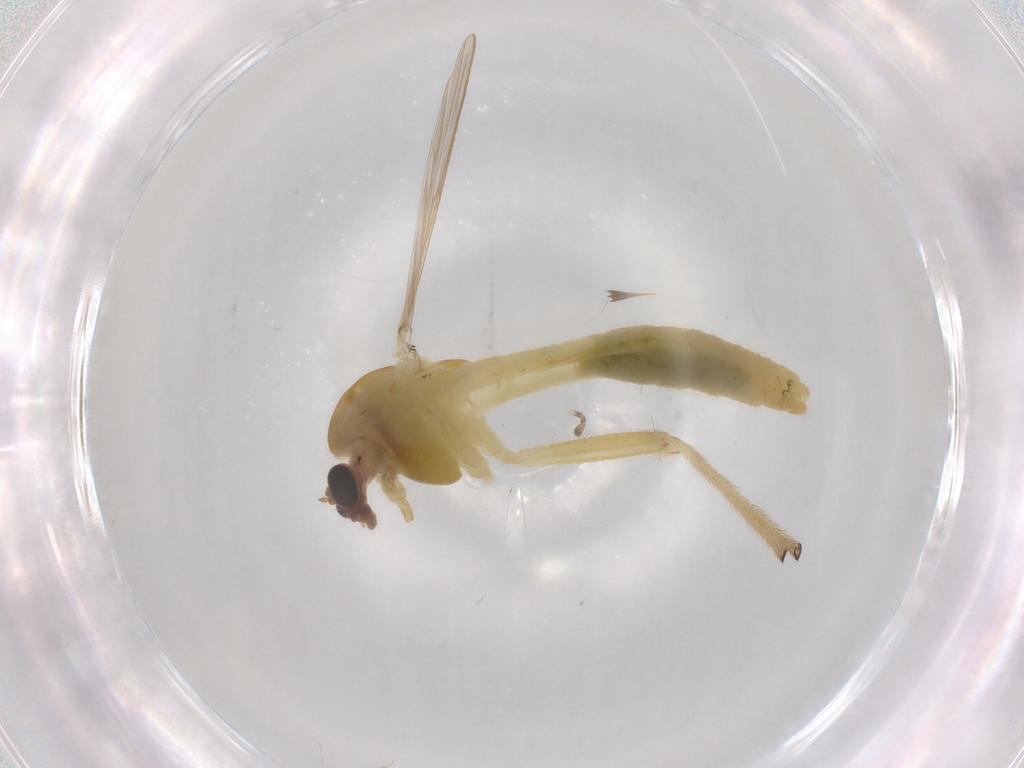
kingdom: Animalia
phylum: Arthropoda
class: Insecta
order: Diptera
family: Chironomidae
